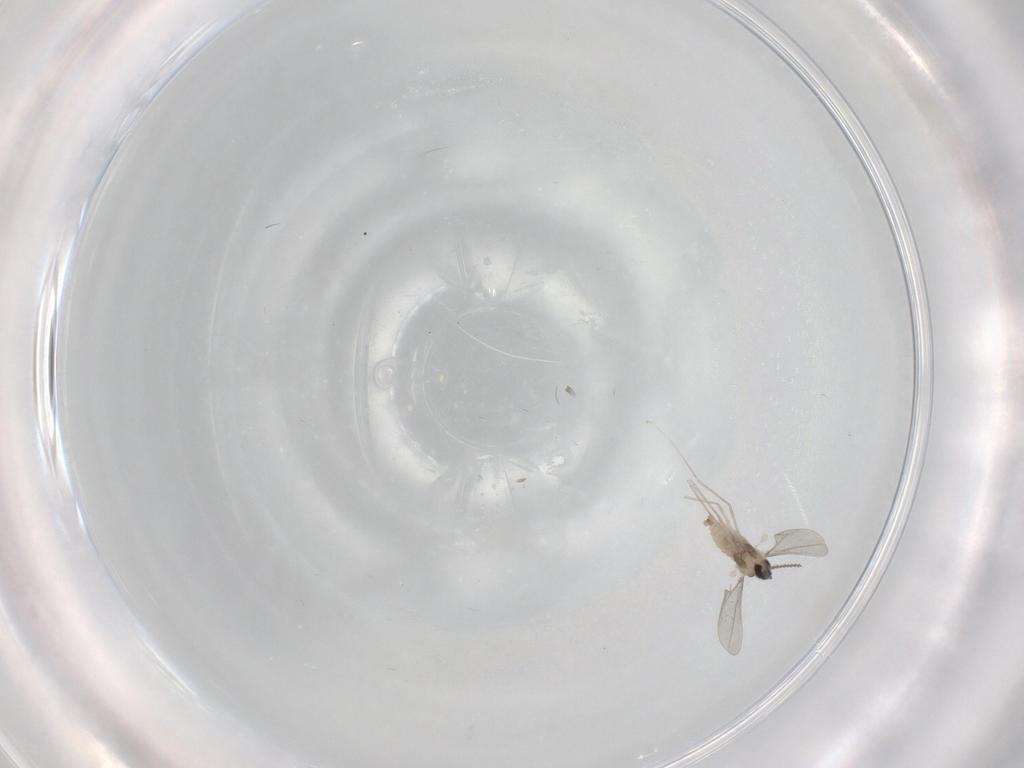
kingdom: Animalia
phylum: Arthropoda
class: Insecta
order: Diptera
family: Cecidomyiidae
